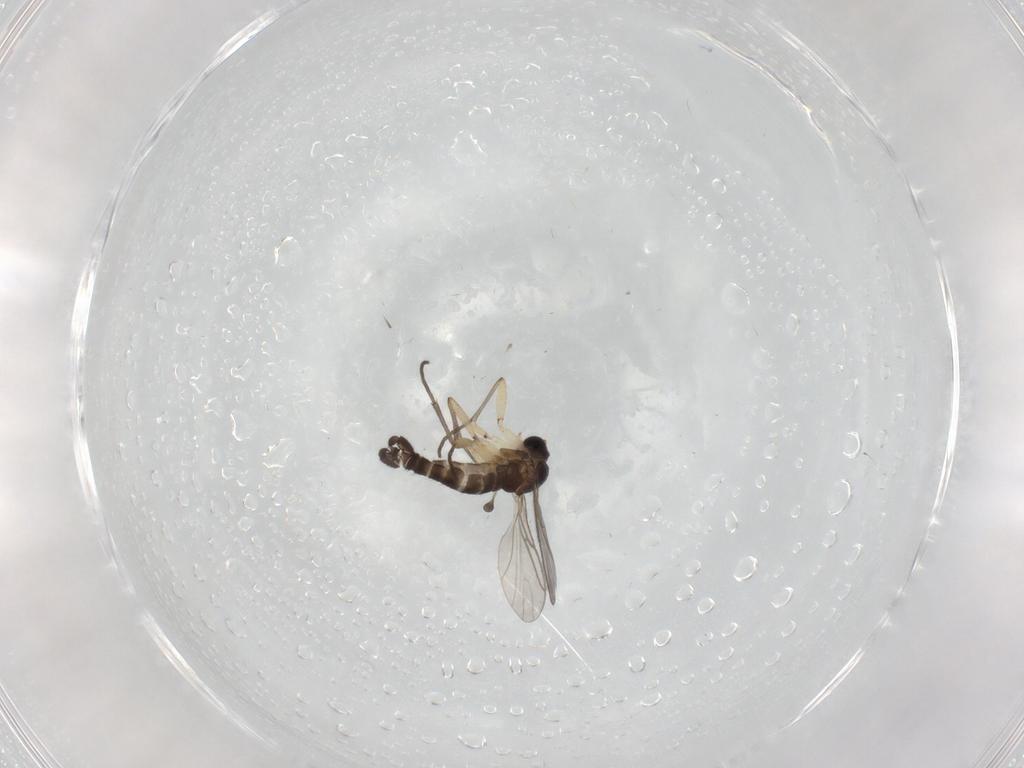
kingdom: Animalia
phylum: Arthropoda
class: Insecta
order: Diptera
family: Cecidomyiidae
